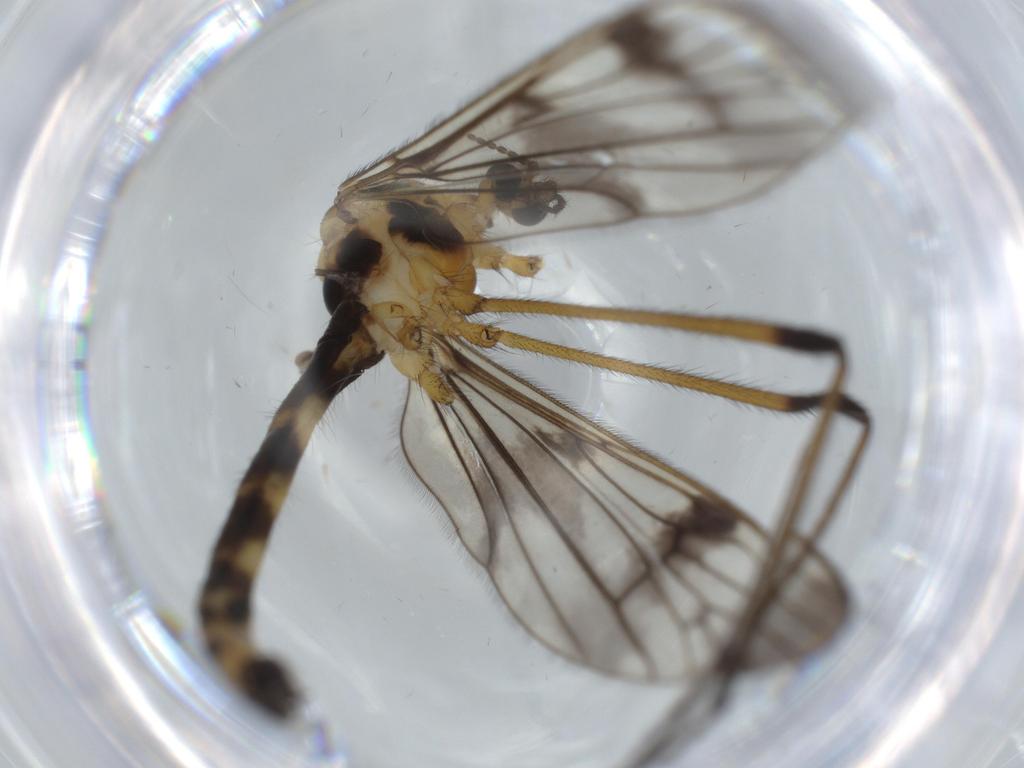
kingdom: Animalia
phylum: Arthropoda
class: Insecta
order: Diptera
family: Limoniidae
